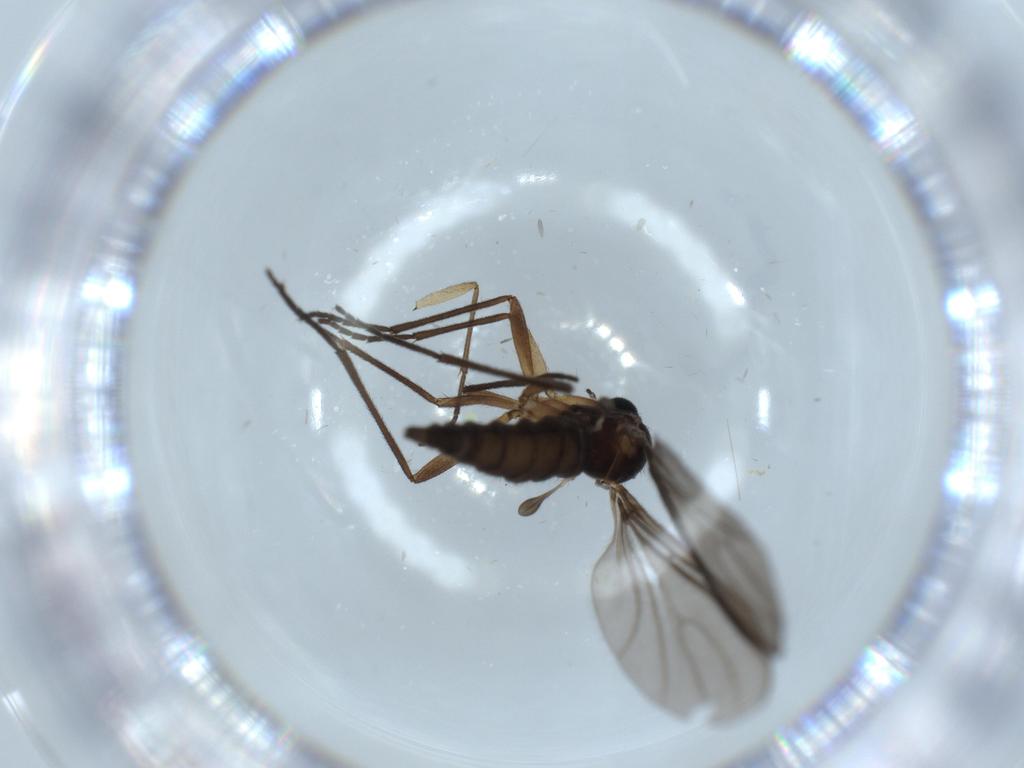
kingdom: Animalia
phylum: Arthropoda
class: Insecta
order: Diptera
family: Sciaridae
